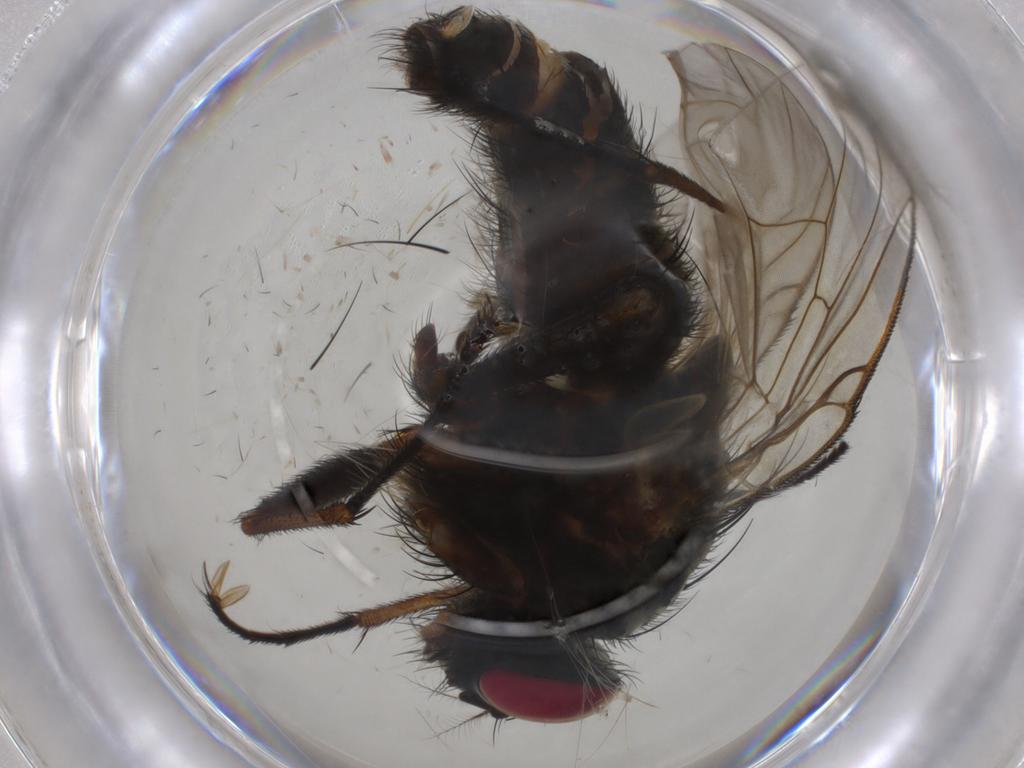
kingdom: Animalia
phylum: Arthropoda
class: Insecta
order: Diptera
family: Muscidae
